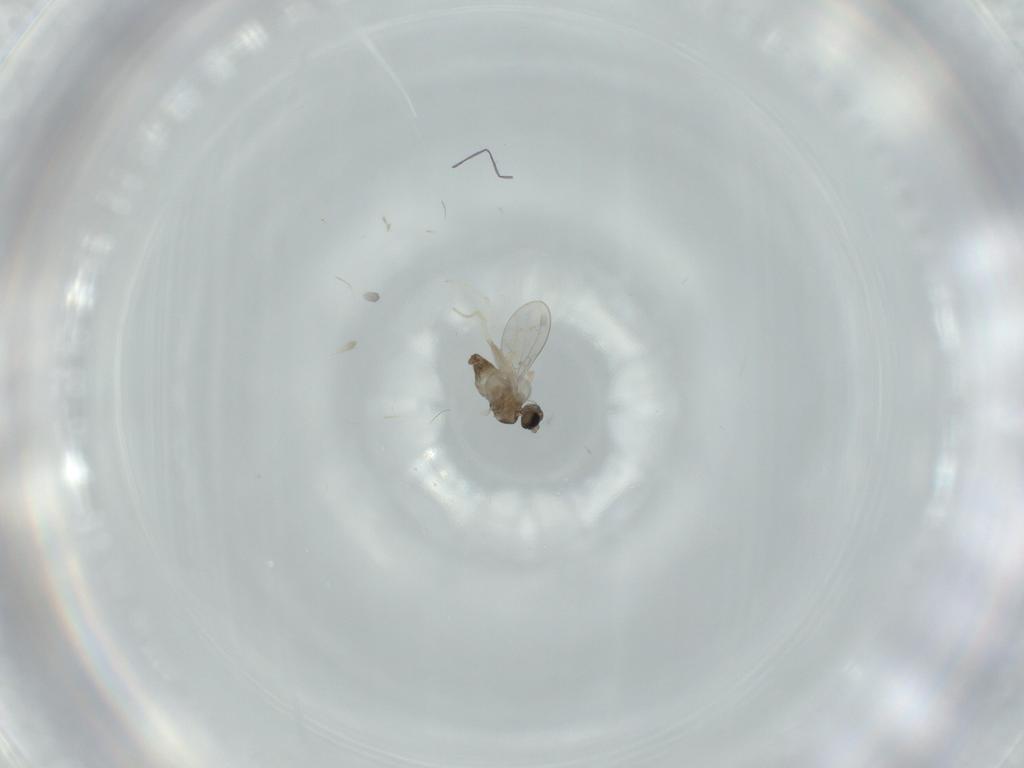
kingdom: Animalia
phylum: Arthropoda
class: Insecta
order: Diptera
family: Cecidomyiidae
